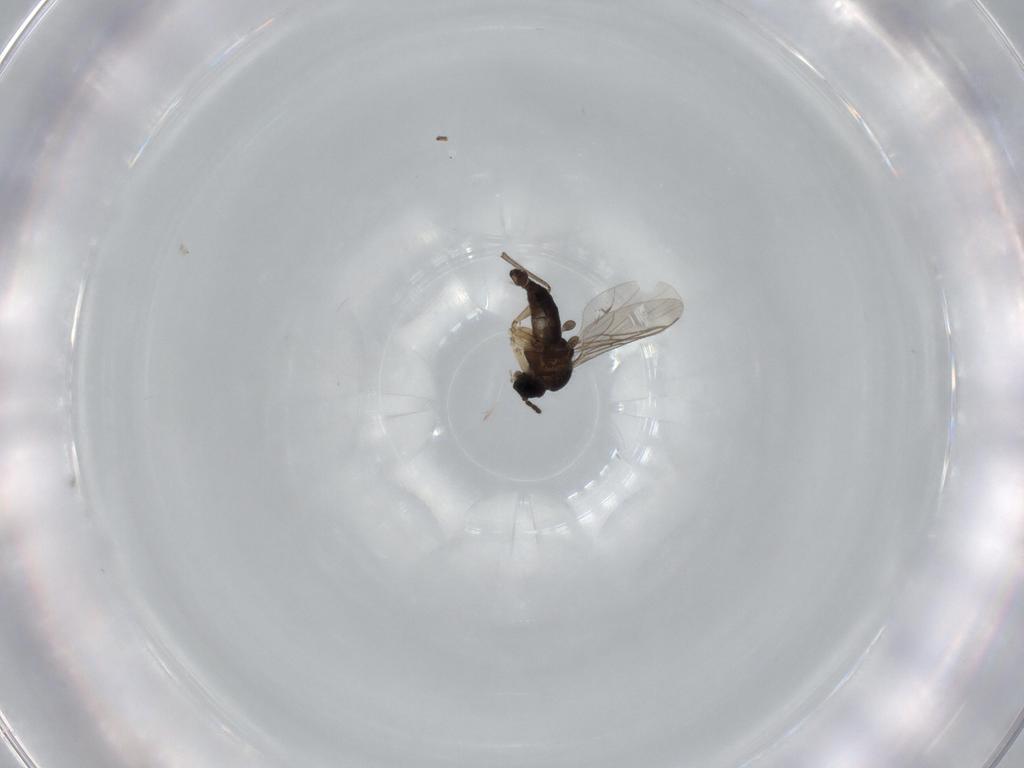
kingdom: Animalia
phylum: Arthropoda
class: Insecta
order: Diptera
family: Sciaridae
